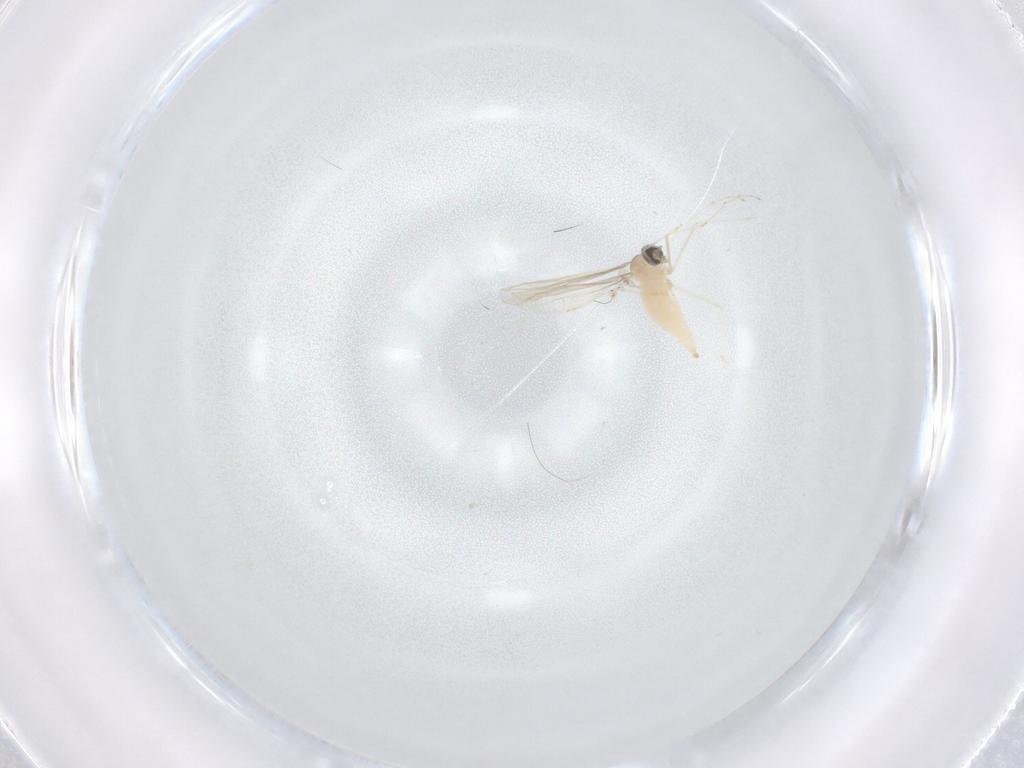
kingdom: Animalia
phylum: Arthropoda
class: Insecta
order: Diptera
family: Cecidomyiidae
